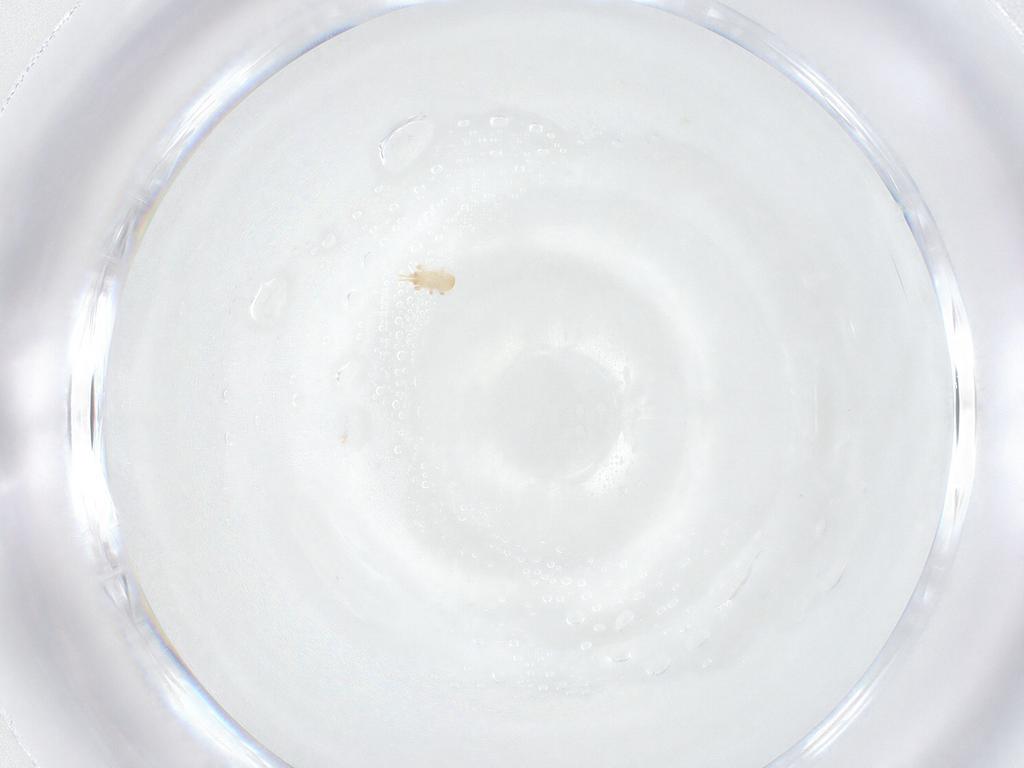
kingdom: Animalia
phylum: Arthropoda
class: Arachnida
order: Mesostigmata
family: Ascidae
